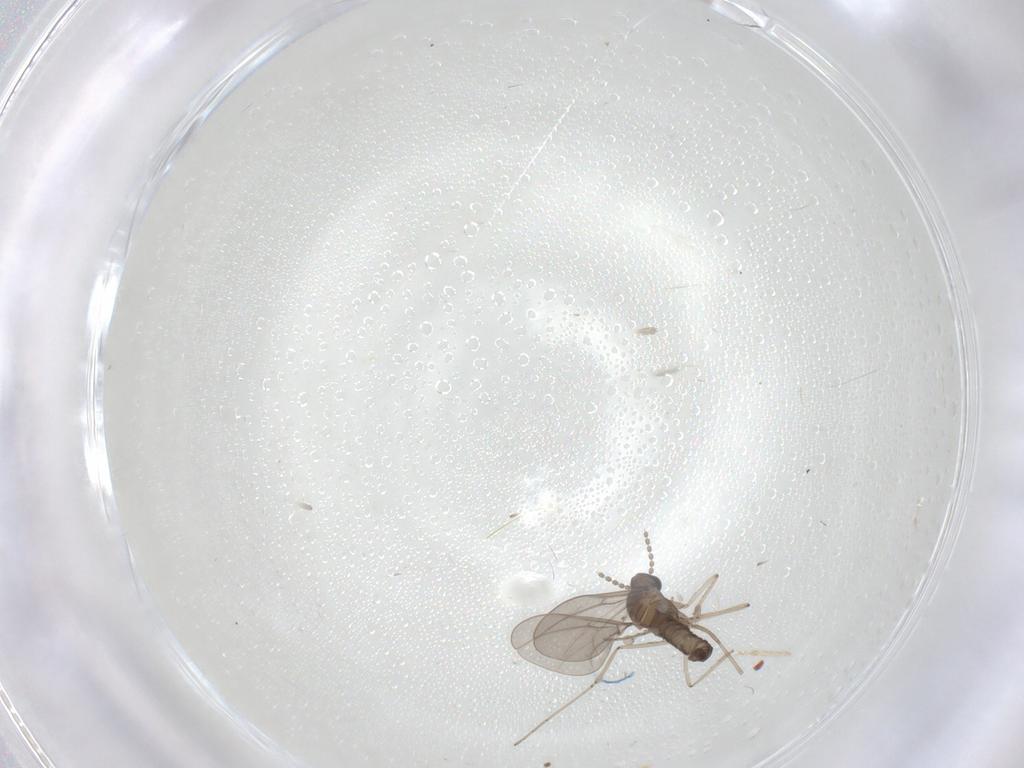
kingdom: Animalia
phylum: Arthropoda
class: Insecta
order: Diptera
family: Cecidomyiidae
